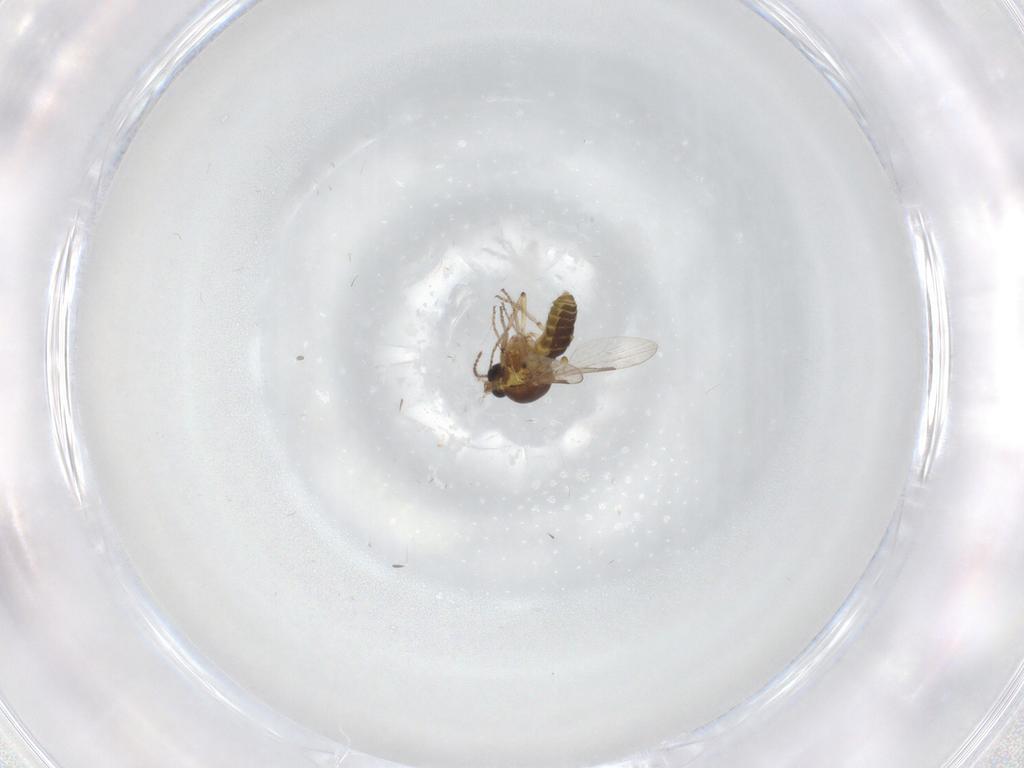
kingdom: Animalia
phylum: Arthropoda
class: Insecta
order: Diptera
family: Ceratopogonidae
